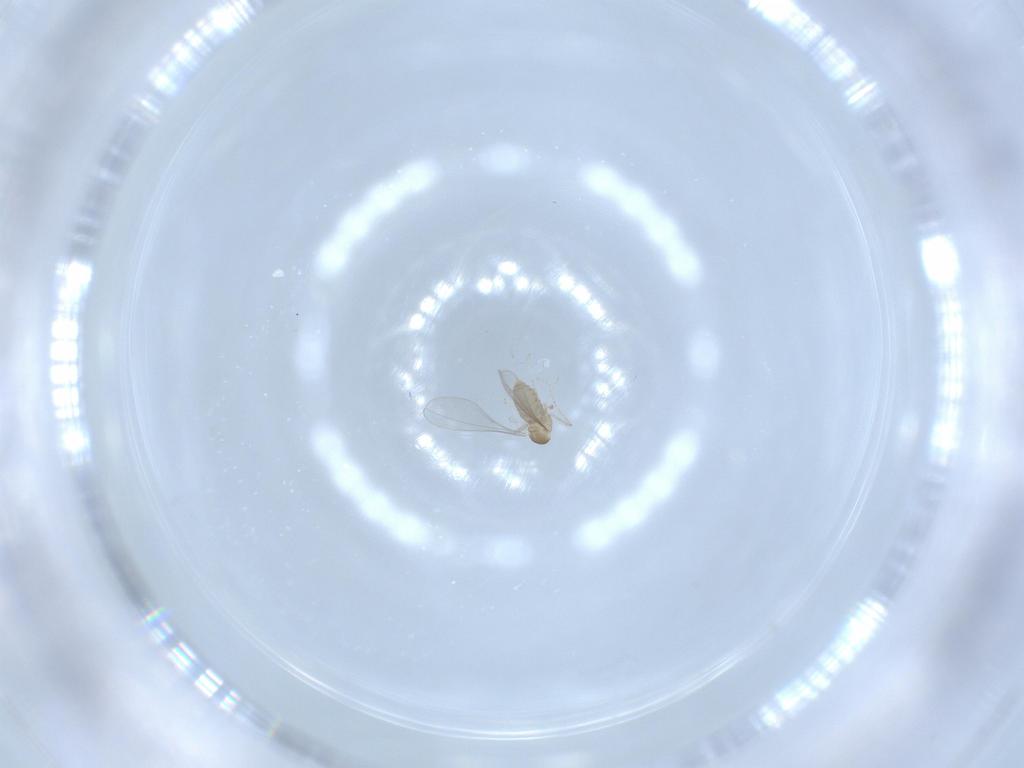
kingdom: Animalia
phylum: Arthropoda
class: Insecta
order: Diptera
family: Cecidomyiidae
